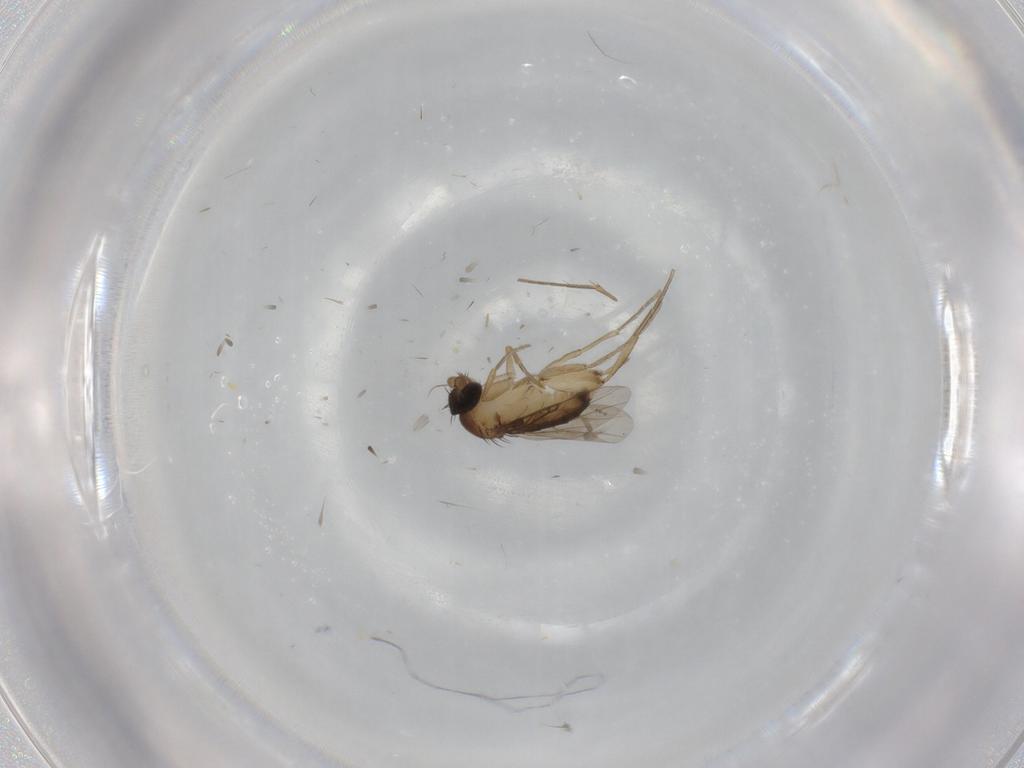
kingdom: Animalia
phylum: Arthropoda
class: Insecta
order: Diptera
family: Phoridae
